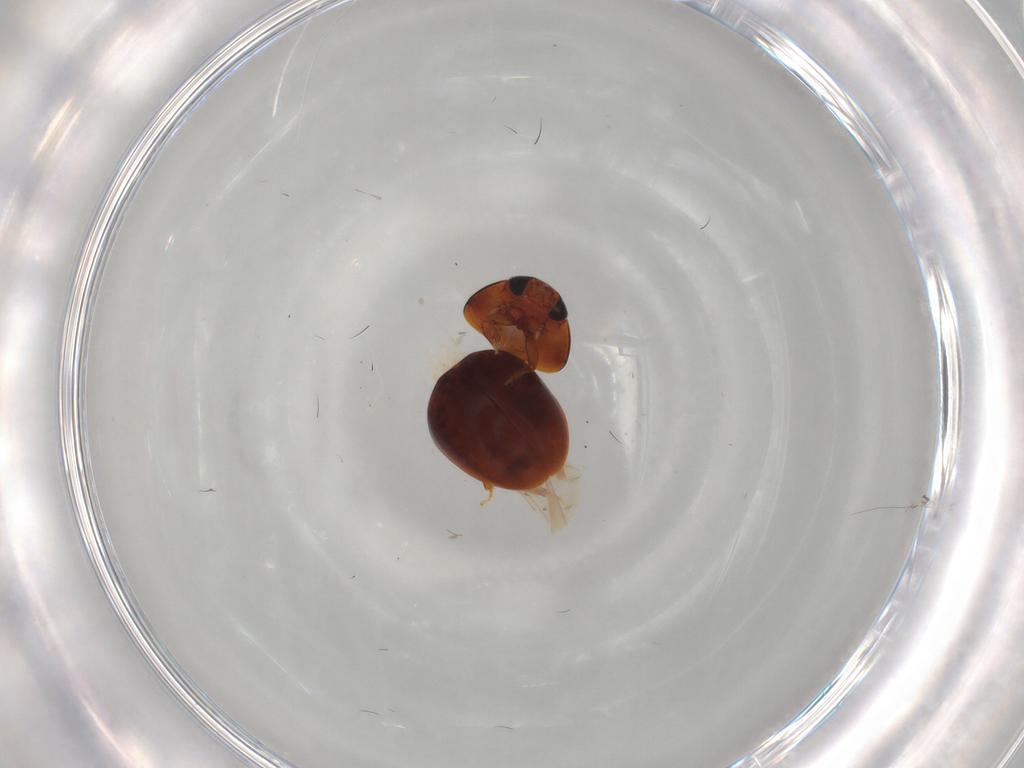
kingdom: Animalia
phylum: Arthropoda
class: Insecta
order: Coleoptera
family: Phalacridae
